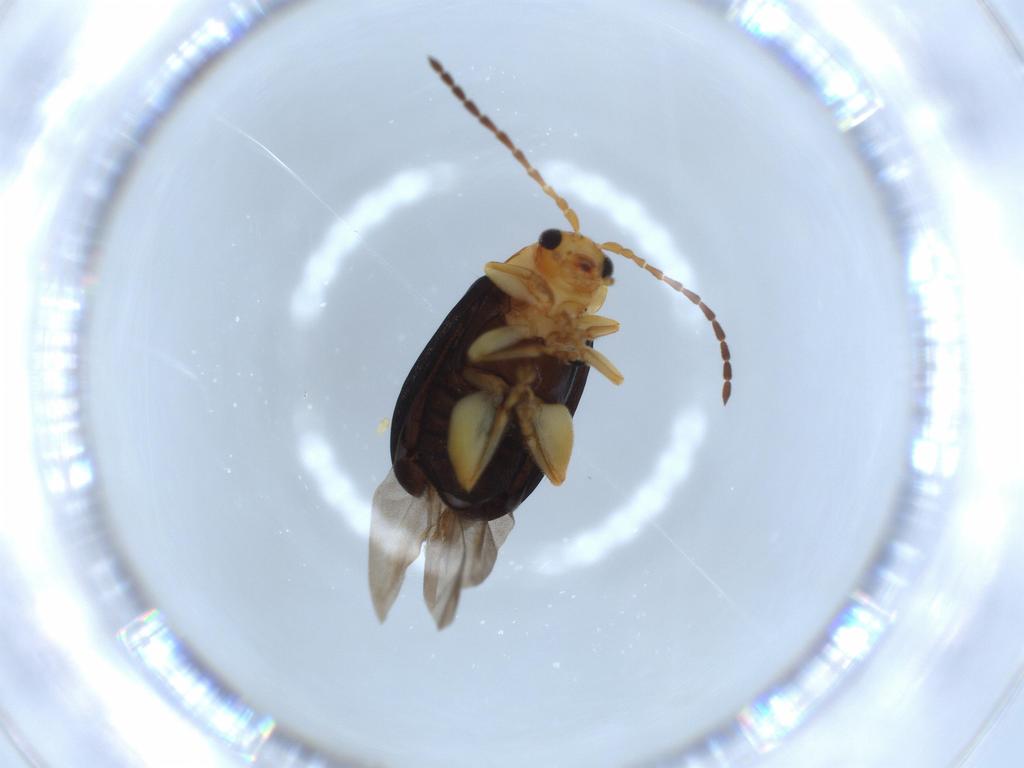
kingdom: Animalia
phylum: Arthropoda
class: Insecta
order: Coleoptera
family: Chrysomelidae
